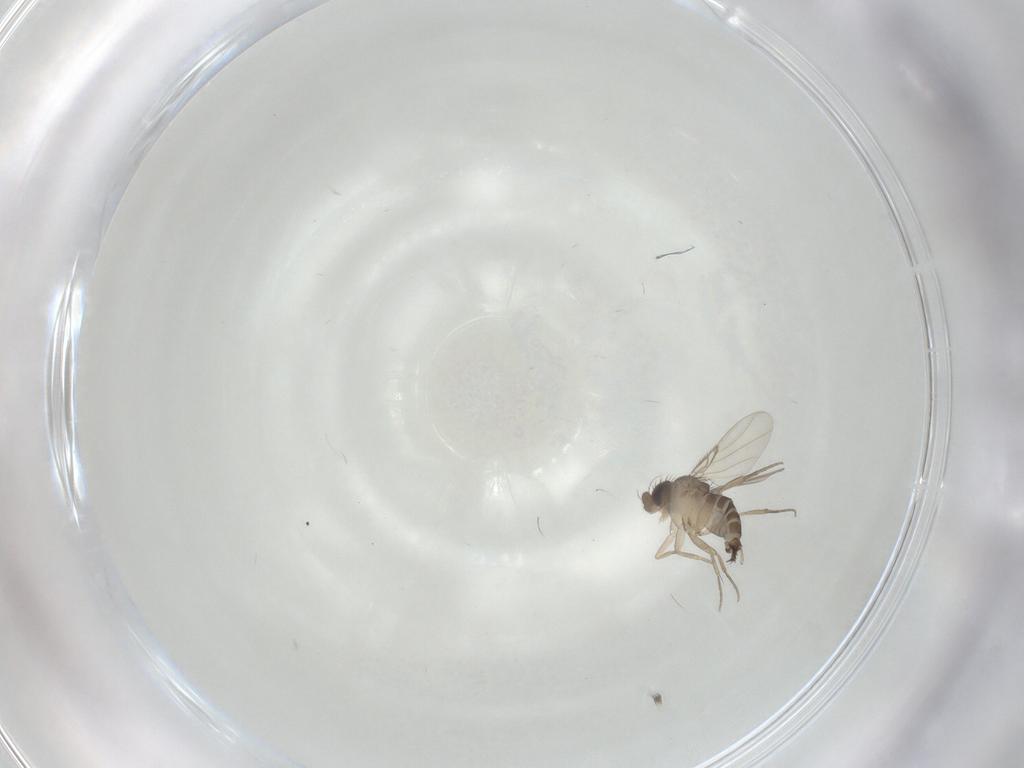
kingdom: Animalia
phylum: Arthropoda
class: Insecta
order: Diptera
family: Phoridae
